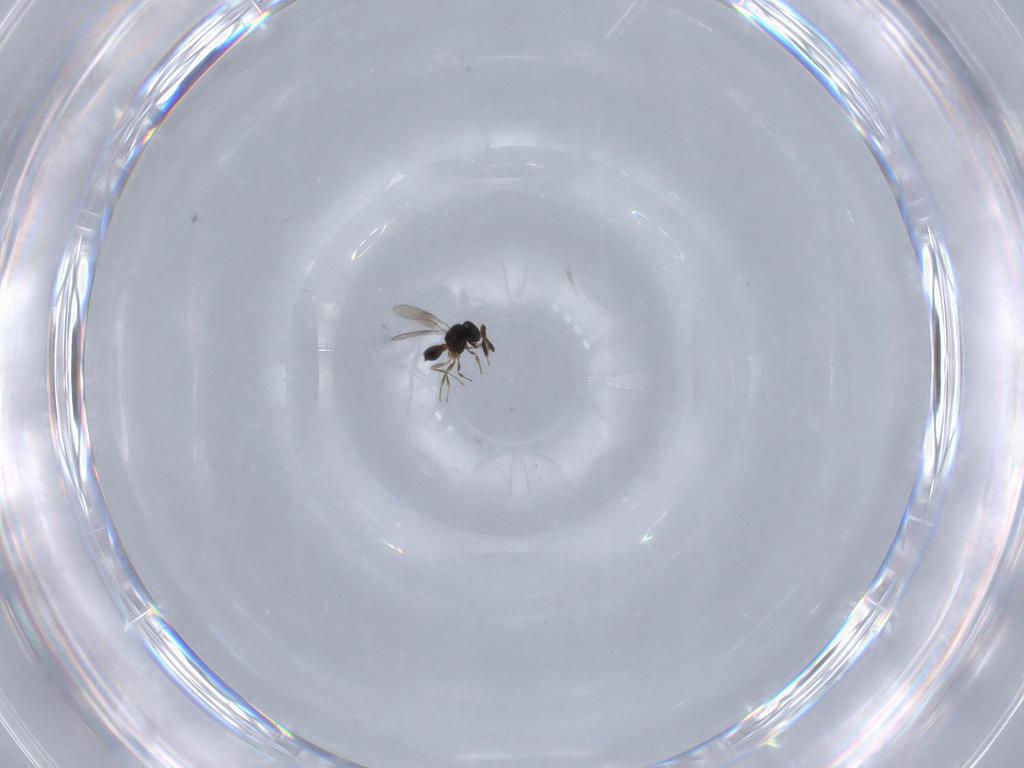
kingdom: Animalia
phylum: Arthropoda
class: Insecta
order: Hymenoptera
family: Scelionidae
